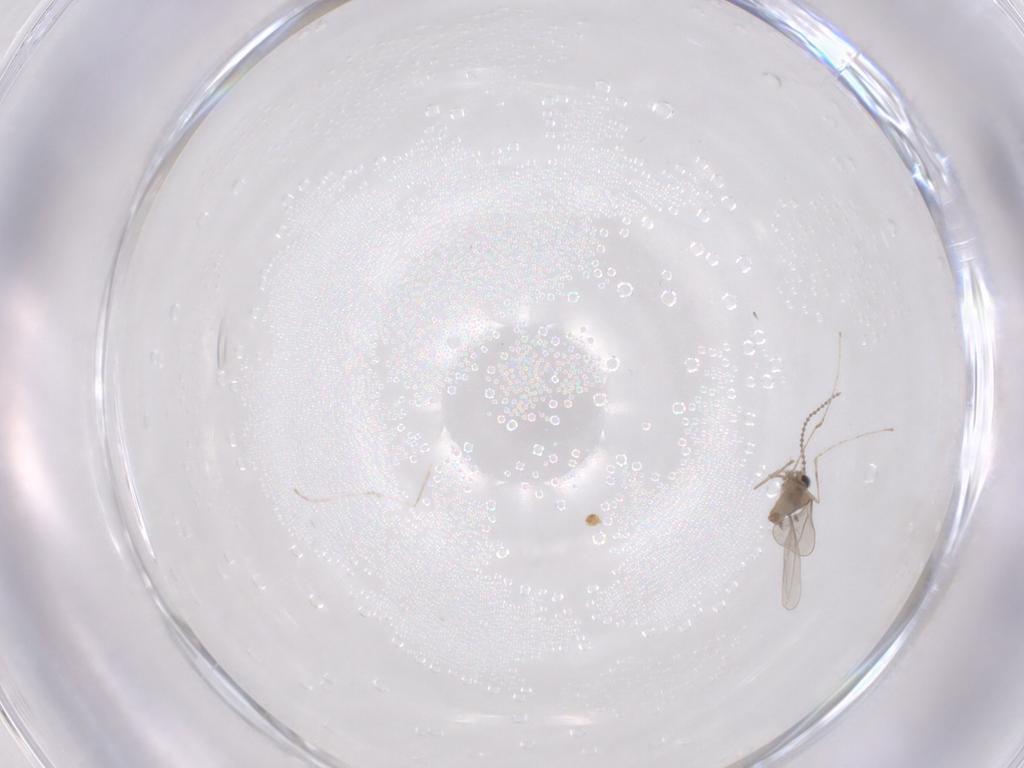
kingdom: Animalia
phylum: Arthropoda
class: Insecta
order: Diptera
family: Cecidomyiidae
